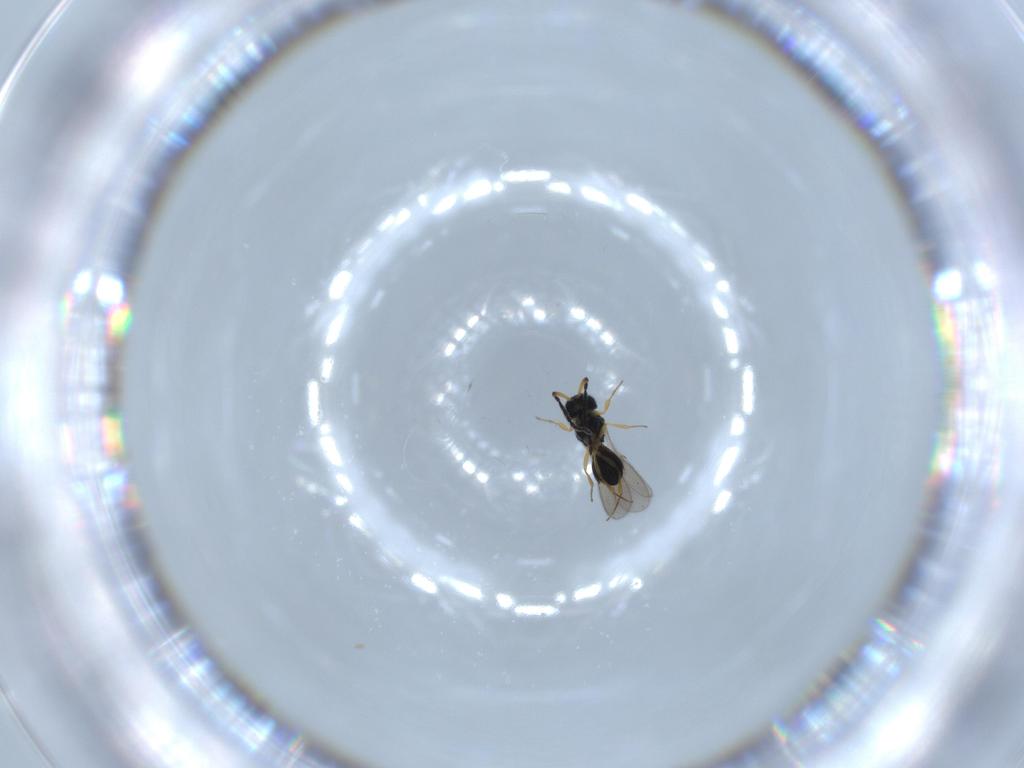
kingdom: Animalia
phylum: Arthropoda
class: Insecta
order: Hymenoptera
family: Scelionidae
